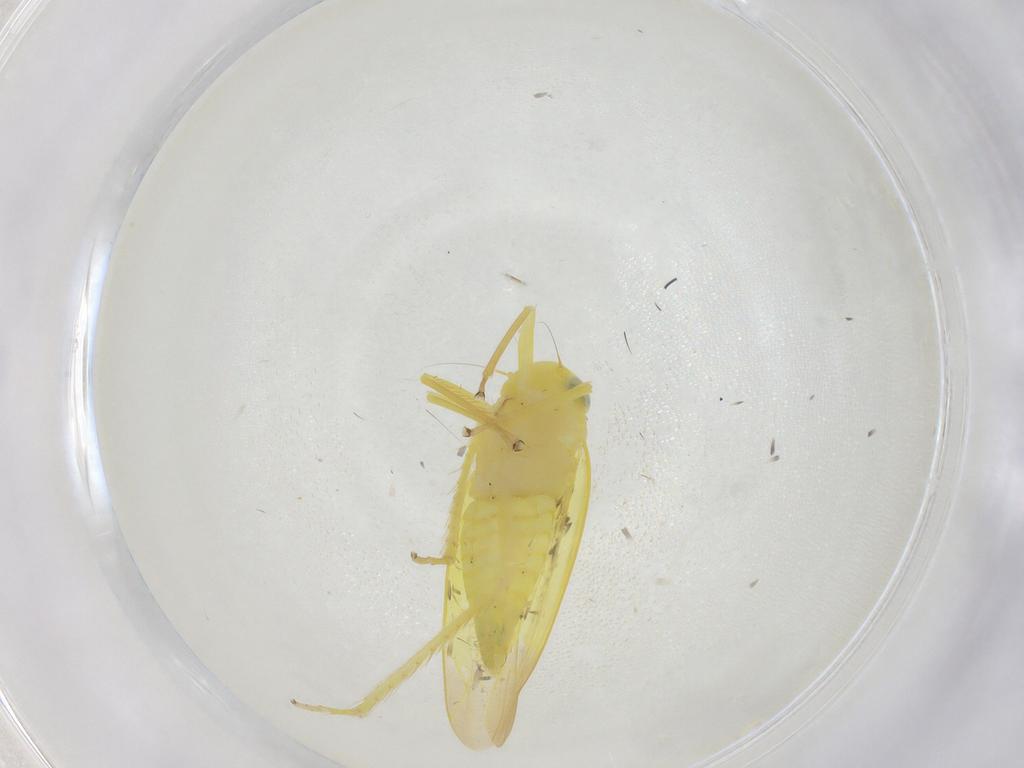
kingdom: Animalia
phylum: Arthropoda
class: Insecta
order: Hemiptera
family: Cicadellidae
